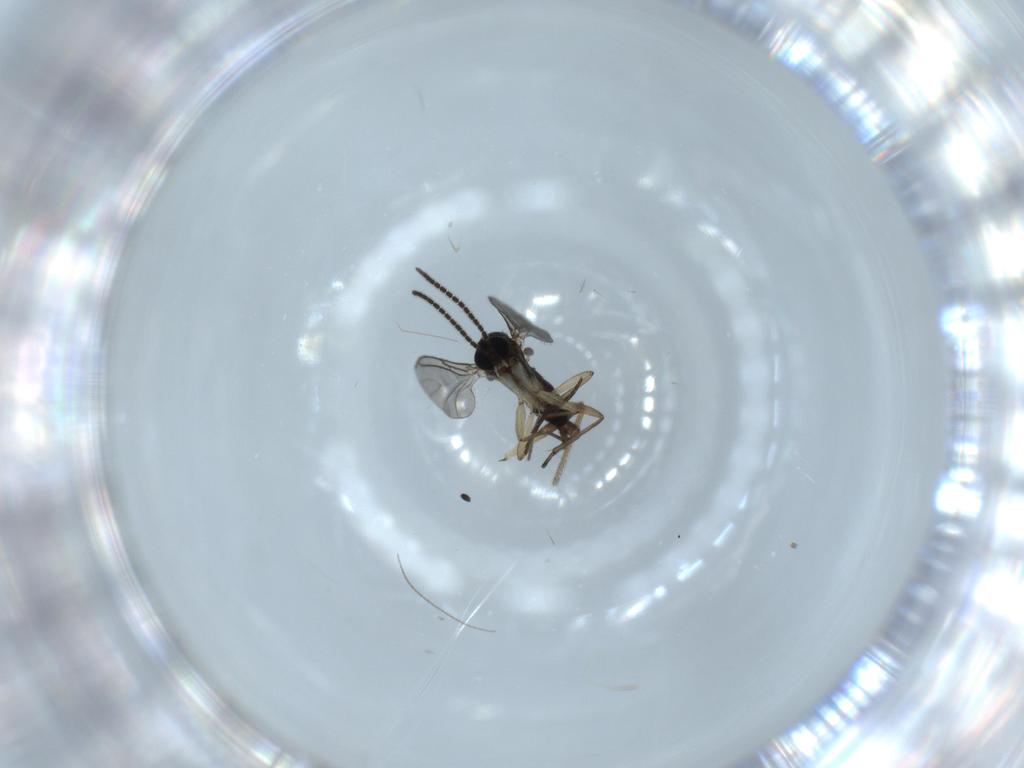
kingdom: Animalia
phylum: Arthropoda
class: Insecta
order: Diptera
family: Sciaridae
